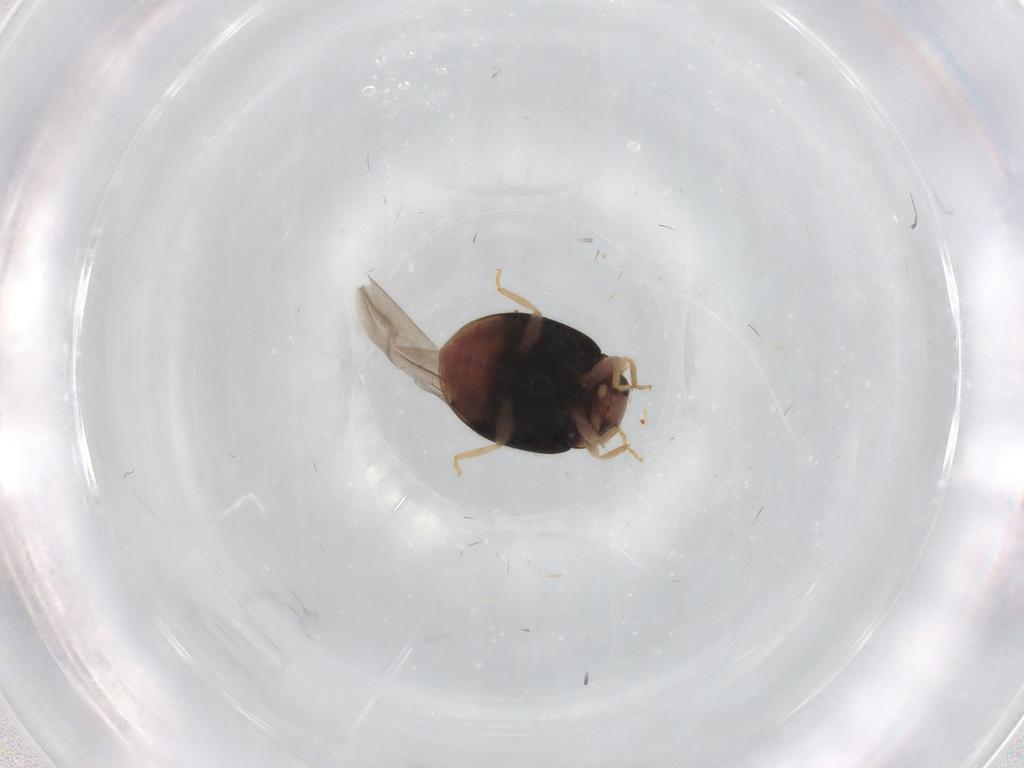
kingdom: Animalia
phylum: Arthropoda
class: Insecta
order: Coleoptera
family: Coccinellidae
